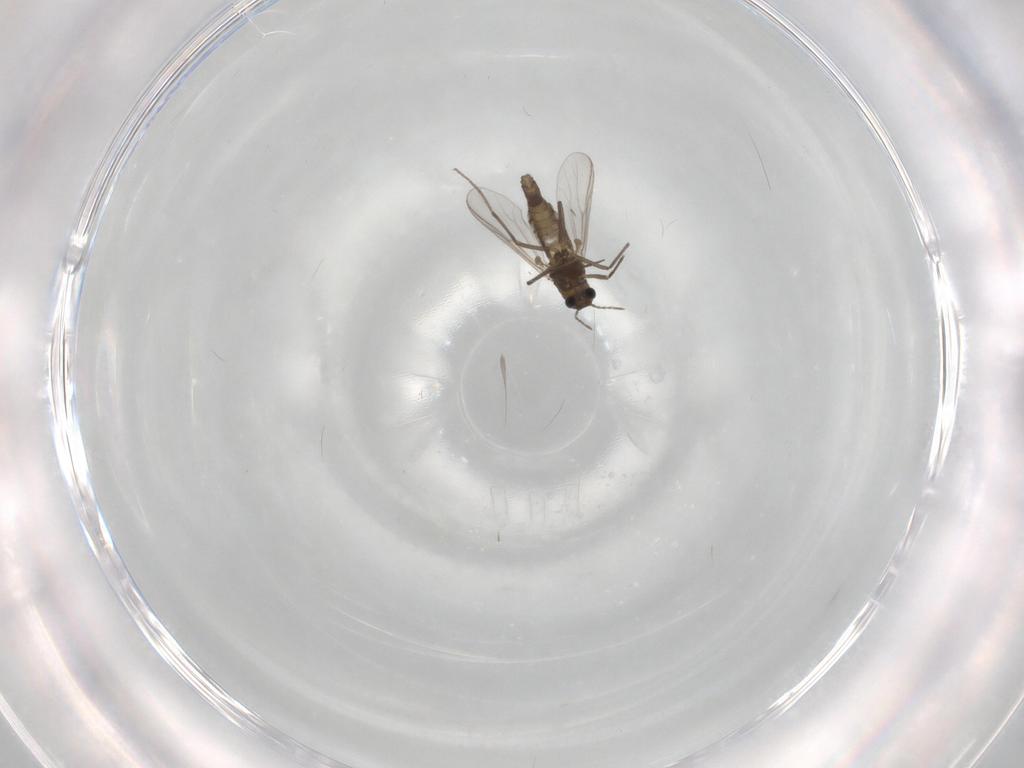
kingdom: Animalia
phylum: Arthropoda
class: Insecta
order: Diptera
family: Chironomidae
